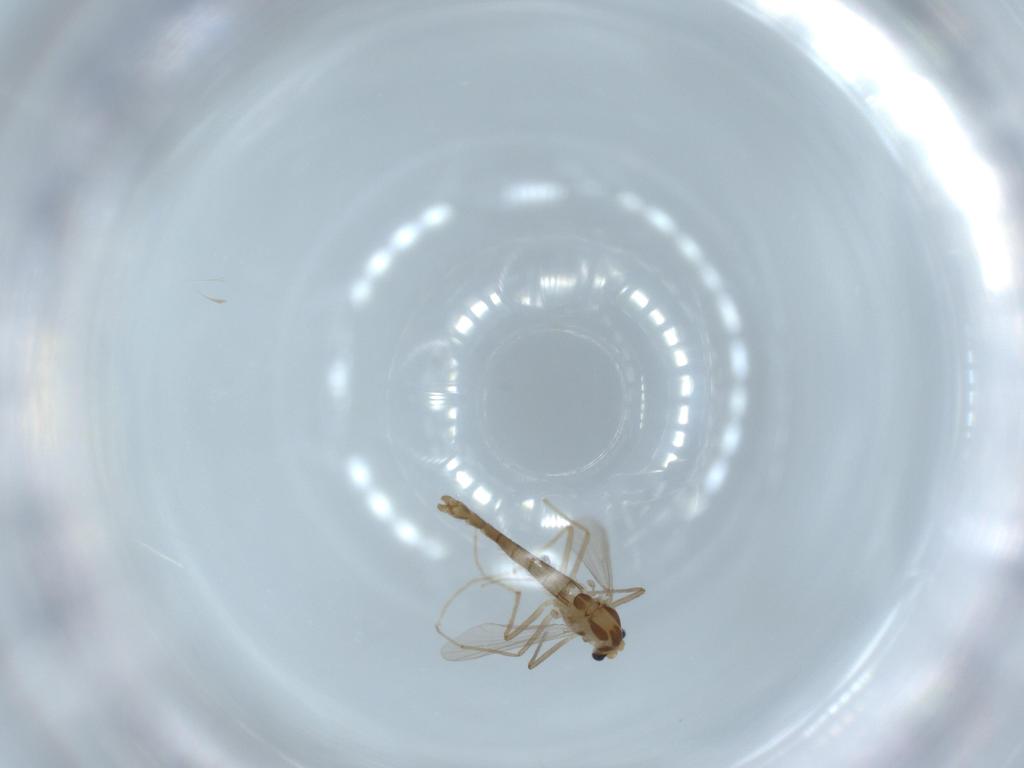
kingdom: Animalia
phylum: Arthropoda
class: Insecta
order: Diptera
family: Chironomidae
